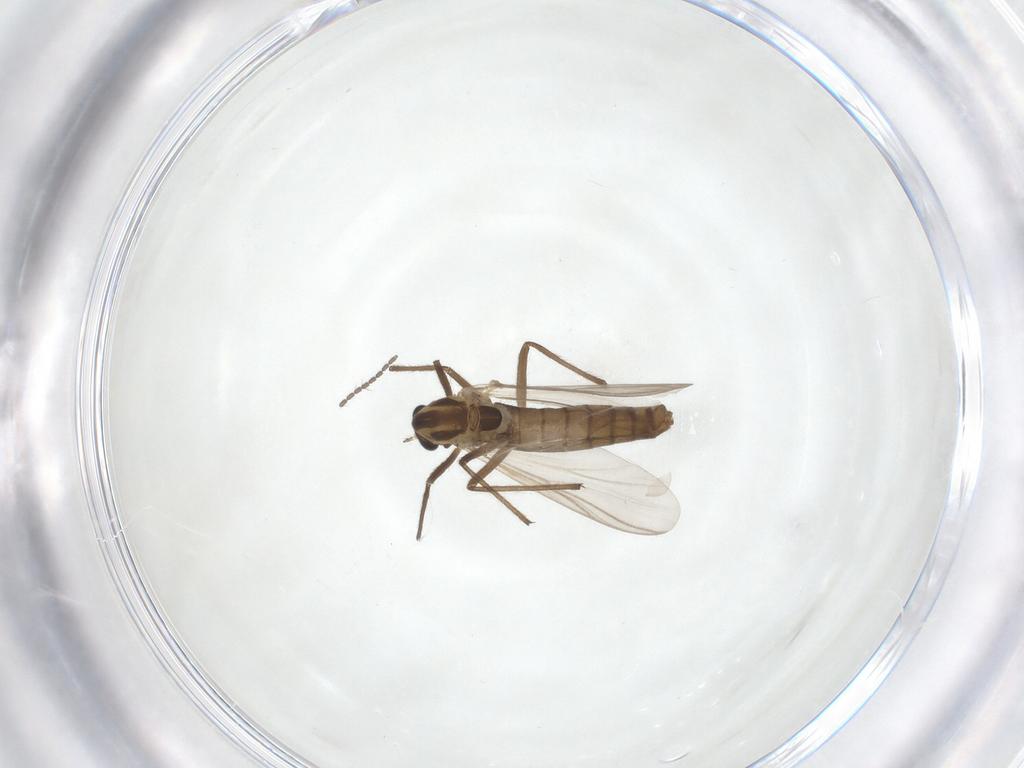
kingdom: Animalia
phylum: Arthropoda
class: Insecta
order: Diptera
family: Chironomidae
